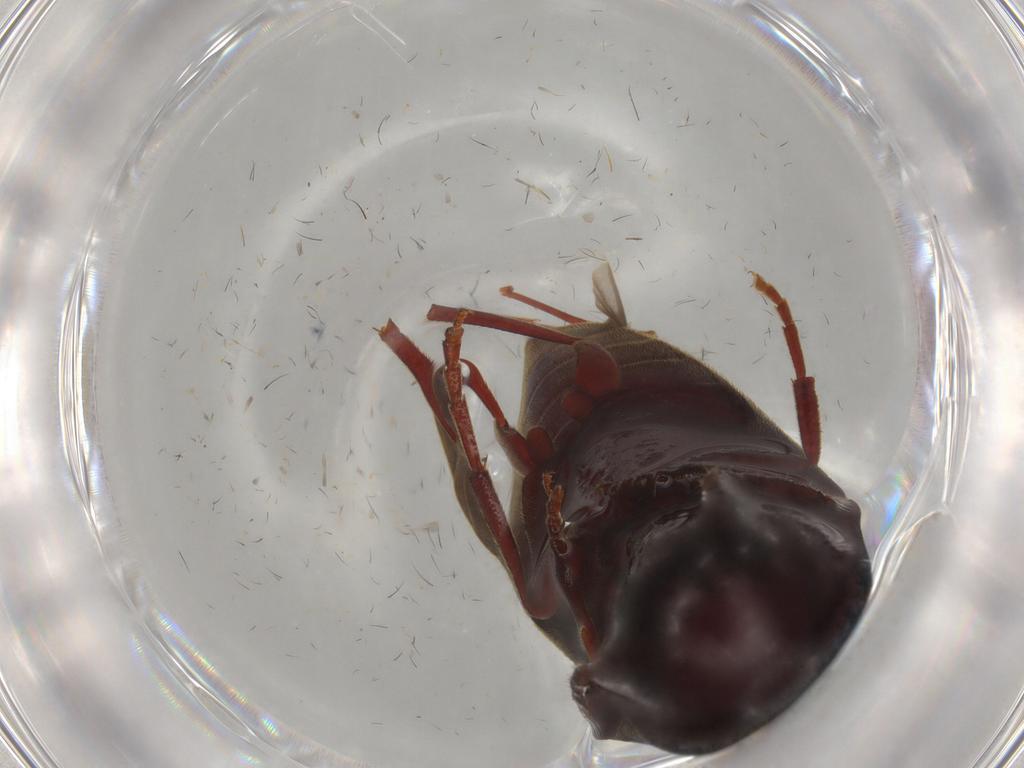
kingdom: Animalia
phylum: Arthropoda
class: Insecta
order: Coleoptera
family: Eucnemidae
